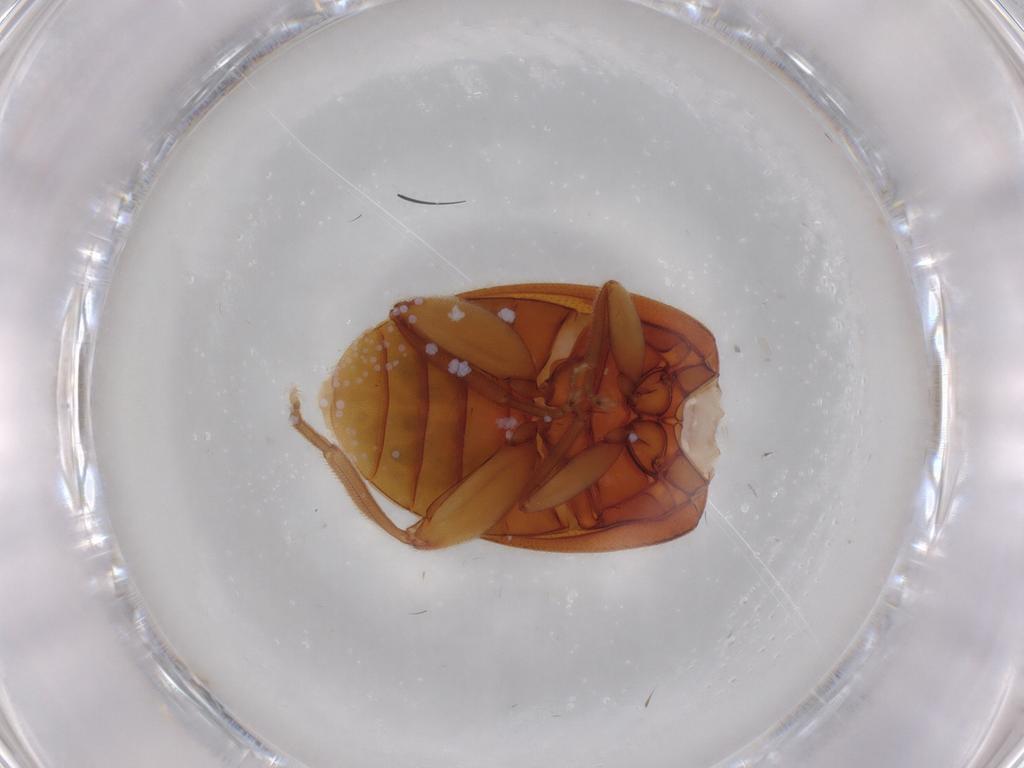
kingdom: Animalia
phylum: Arthropoda
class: Insecta
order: Coleoptera
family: Scirtidae
